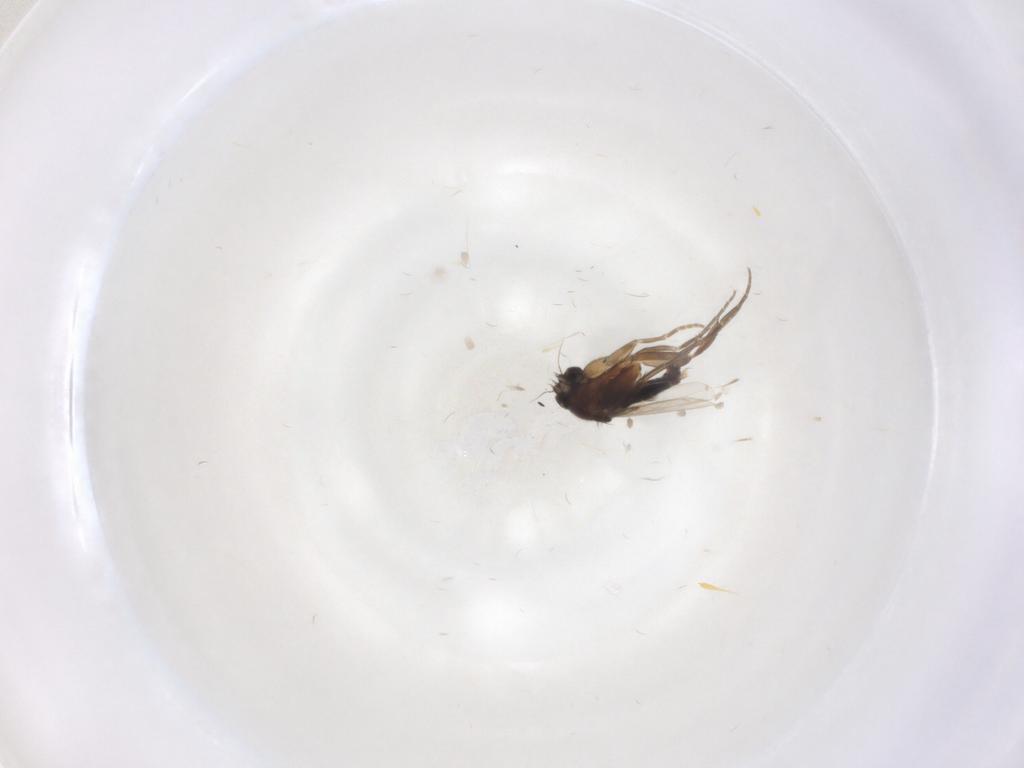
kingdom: Animalia
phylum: Arthropoda
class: Insecta
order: Diptera
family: Phoridae
